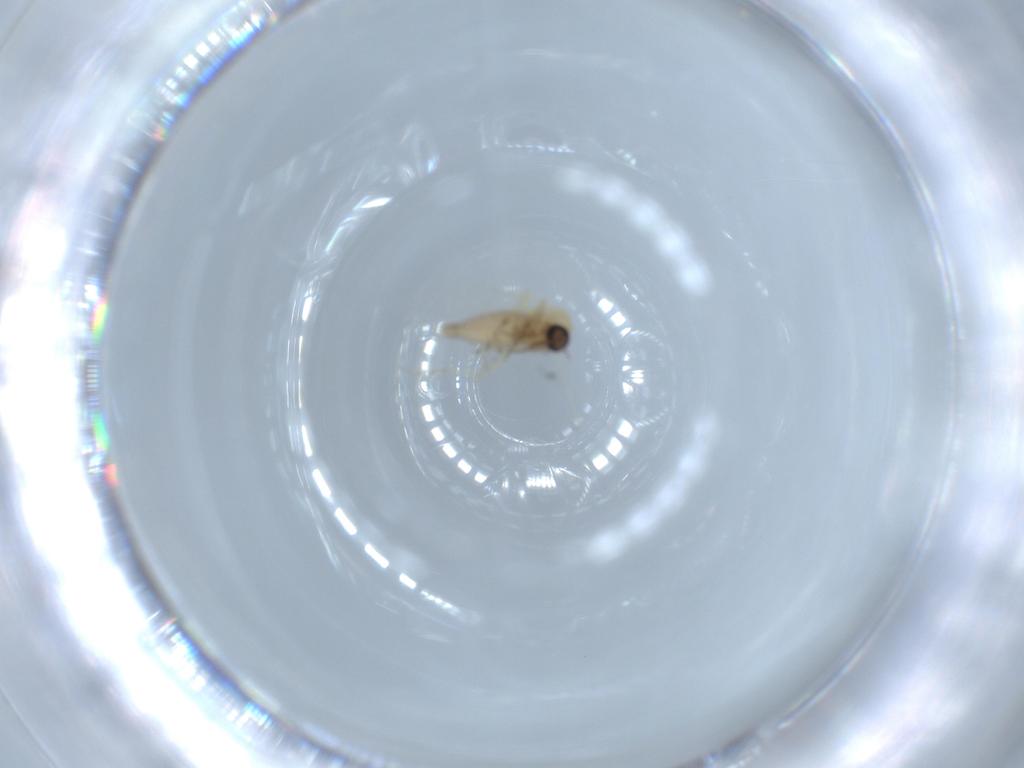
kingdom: Animalia
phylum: Arthropoda
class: Insecta
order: Diptera
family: Ceratopogonidae
